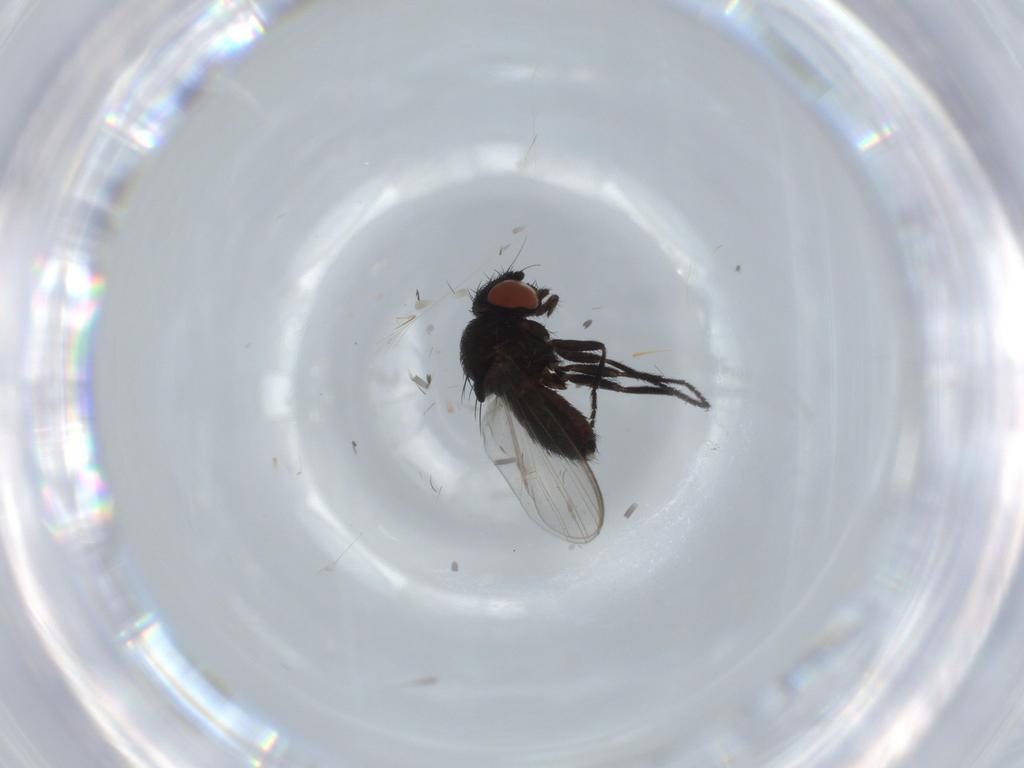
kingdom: Animalia
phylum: Arthropoda
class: Insecta
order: Diptera
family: Milichiidae
